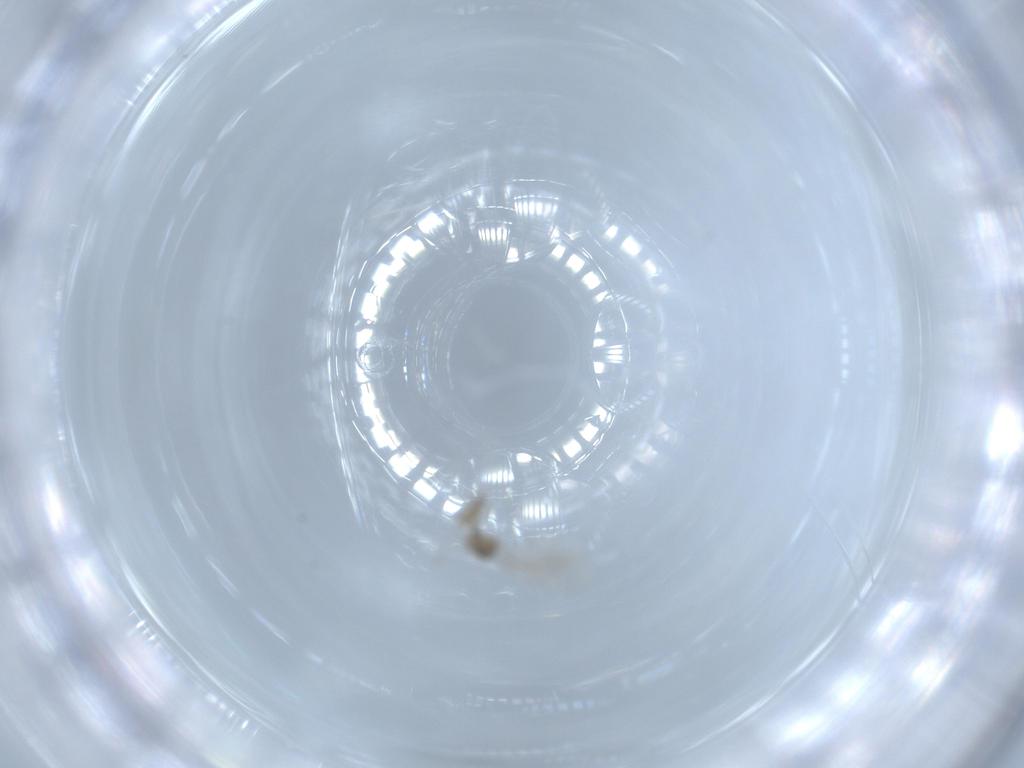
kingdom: Animalia
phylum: Arthropoda
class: Insecta
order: Diptera
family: Cecidomyiidae
